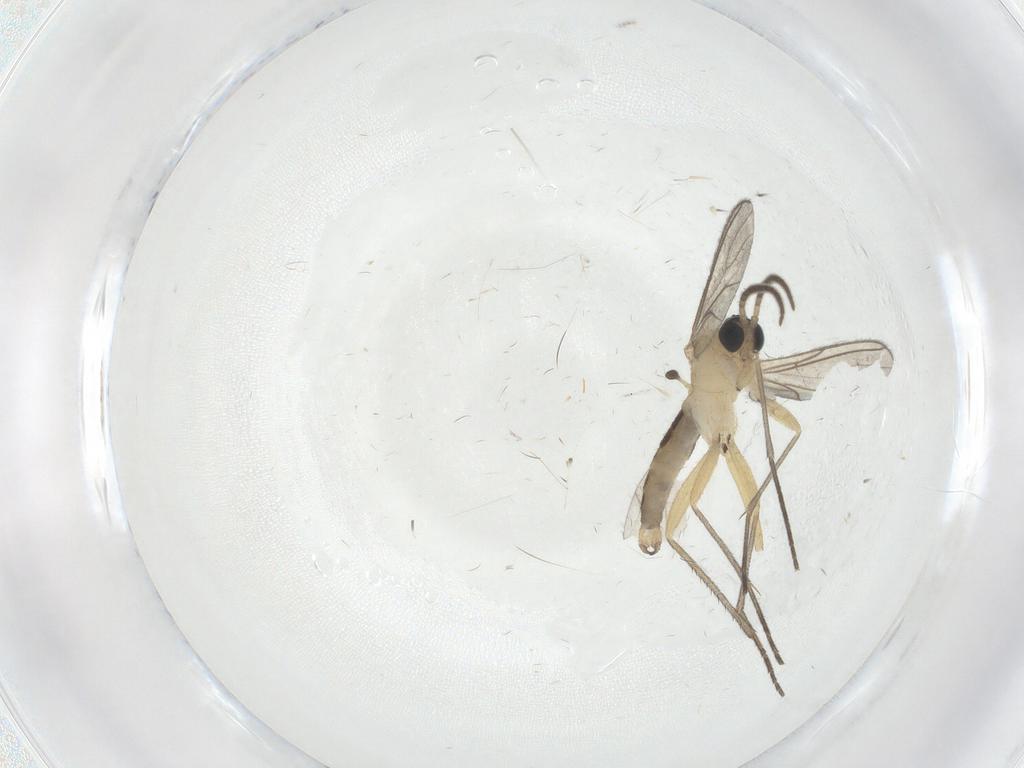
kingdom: Animalia
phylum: Arthropoda
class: Insecta
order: Diptera
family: Sciaridae
